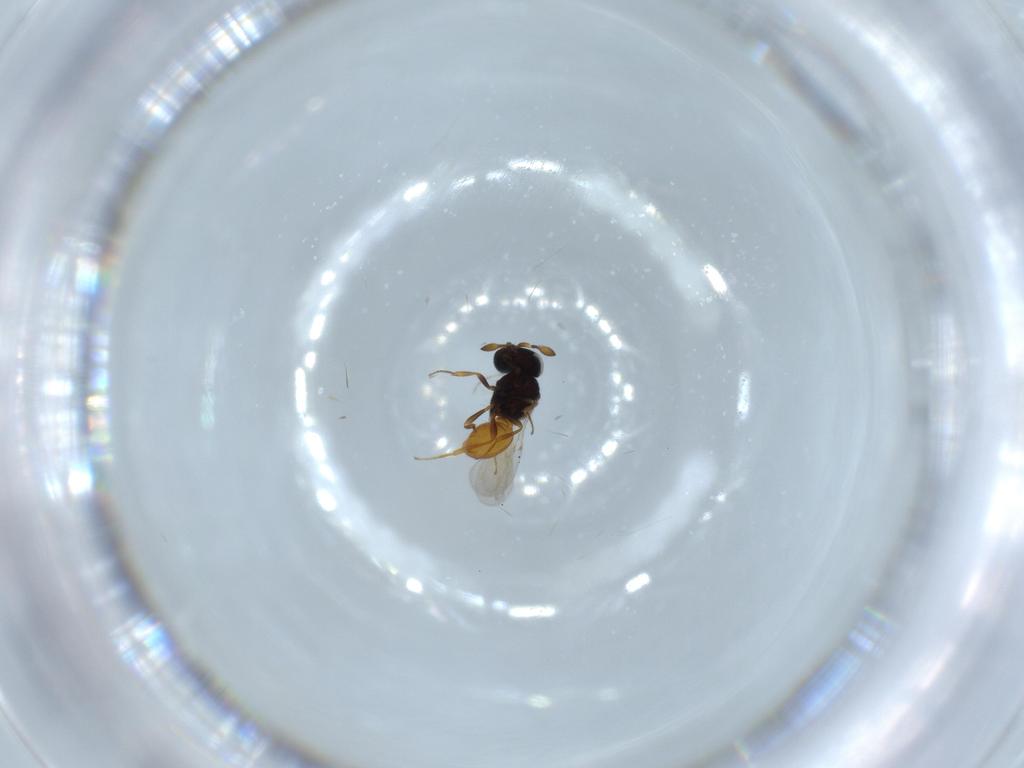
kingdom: Animalia
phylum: Arthropoda
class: Insecta
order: Hymenoptera
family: Scelionidae
